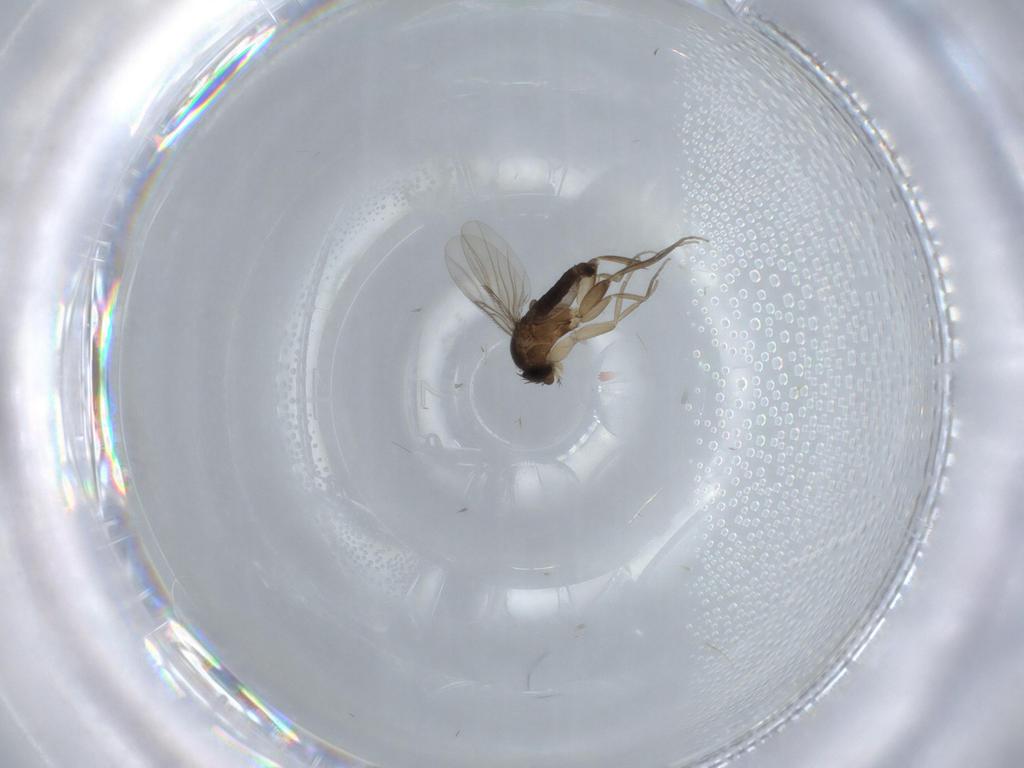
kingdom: Animalia
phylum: Arthropoda
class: Insecta
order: Diptera
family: Phoridae
